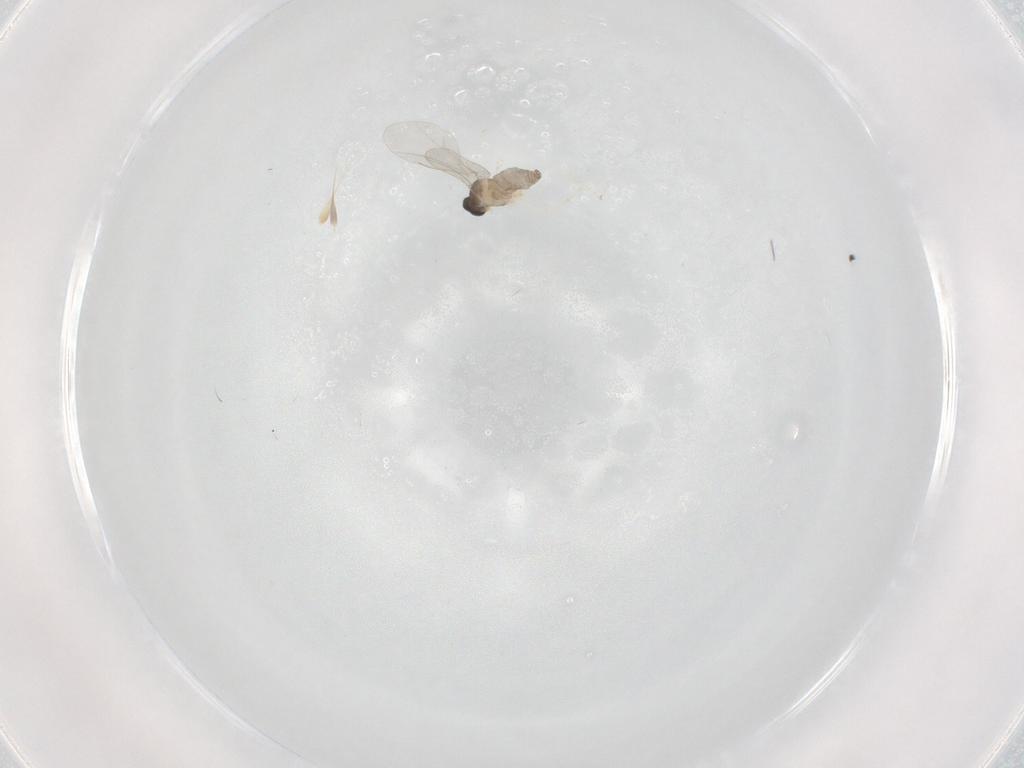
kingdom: Animalia
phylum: Arthropoda
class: Insecta
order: Diptera
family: Cecidomyiidae
